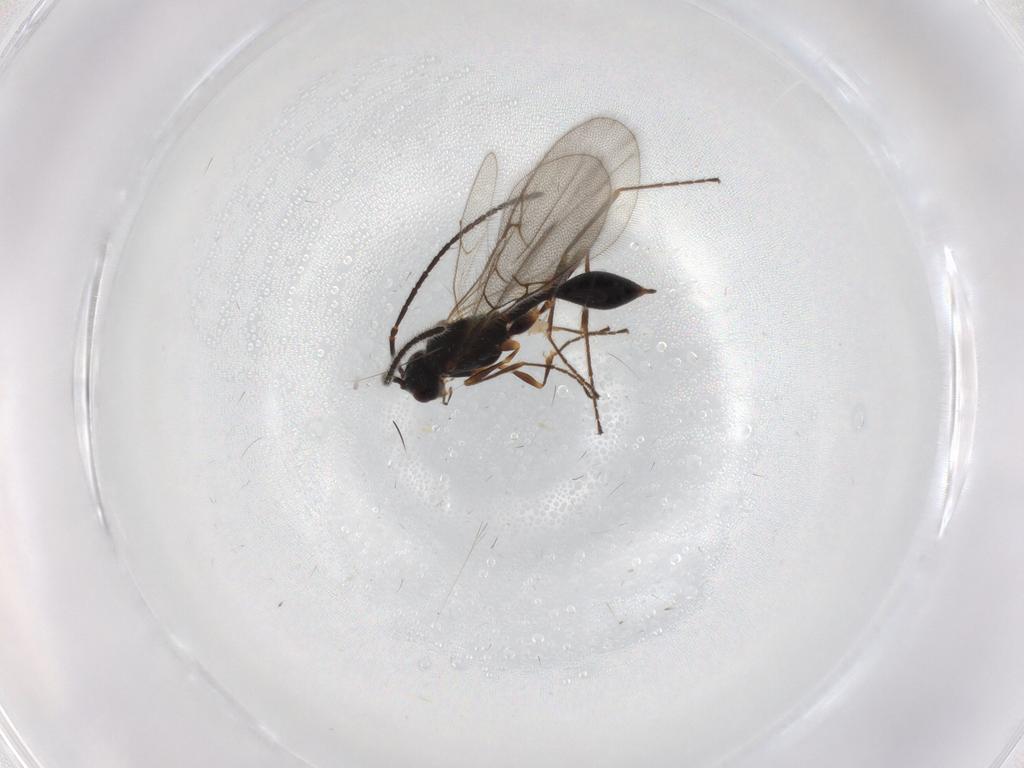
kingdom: Animalia
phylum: Arthropoda
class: Insecta
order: Hymenoptera
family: Diapriidae
